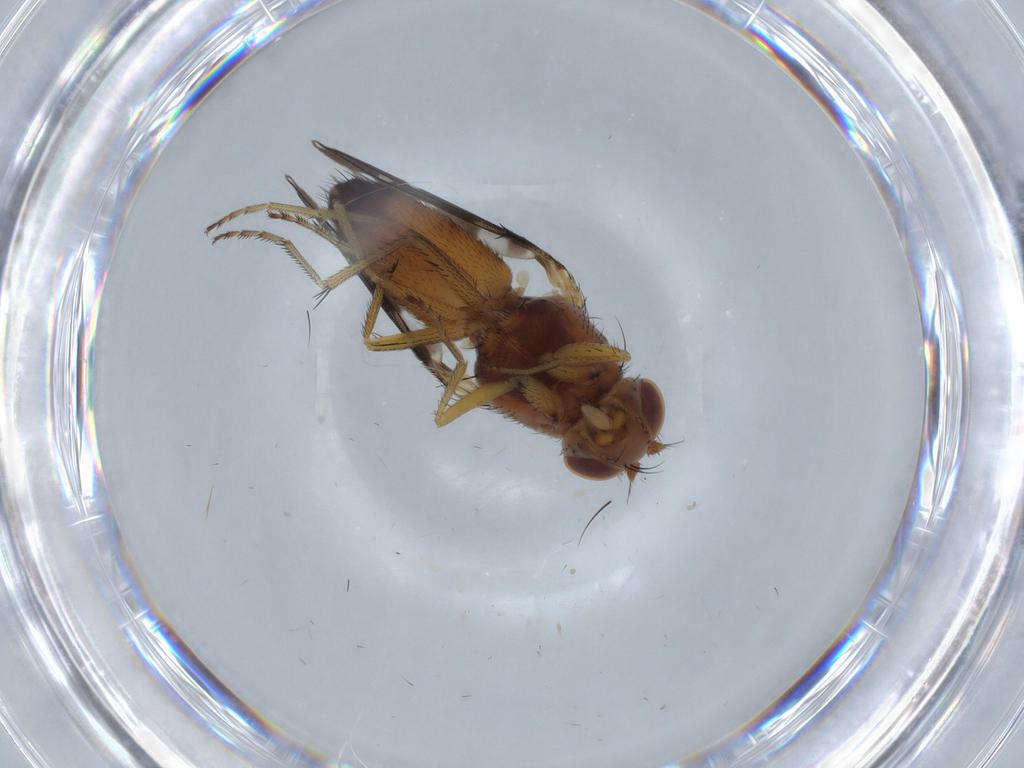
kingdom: Animalia
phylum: Arthropoda
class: Insecta
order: Diptera
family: Ephydridae
